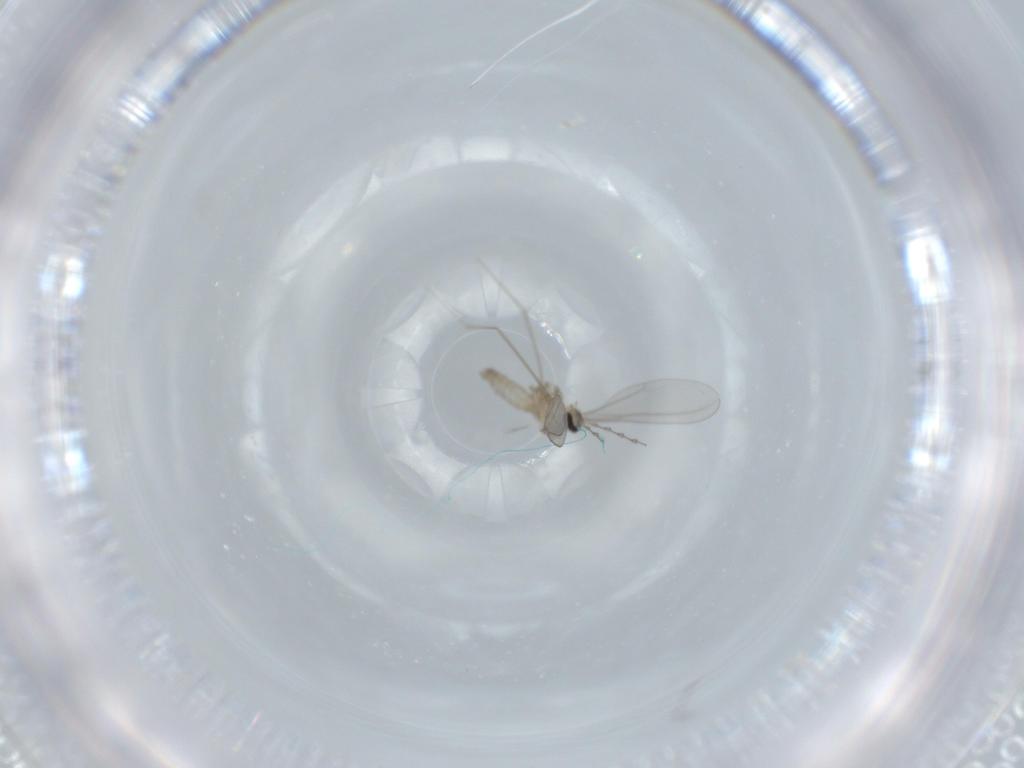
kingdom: Animalia
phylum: Arthropoda
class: Insecta
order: Diptera
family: Cecidomyiidae
